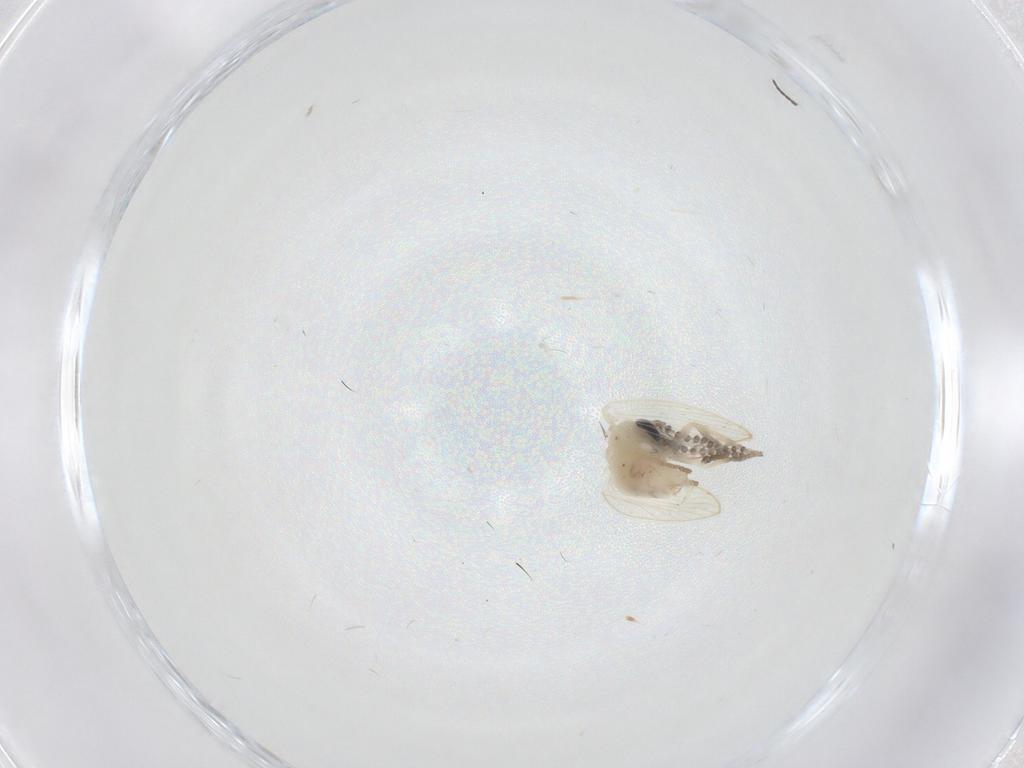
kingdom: Animalia
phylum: Arthropoda
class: Insecta
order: Diptera
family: Psychodidae
